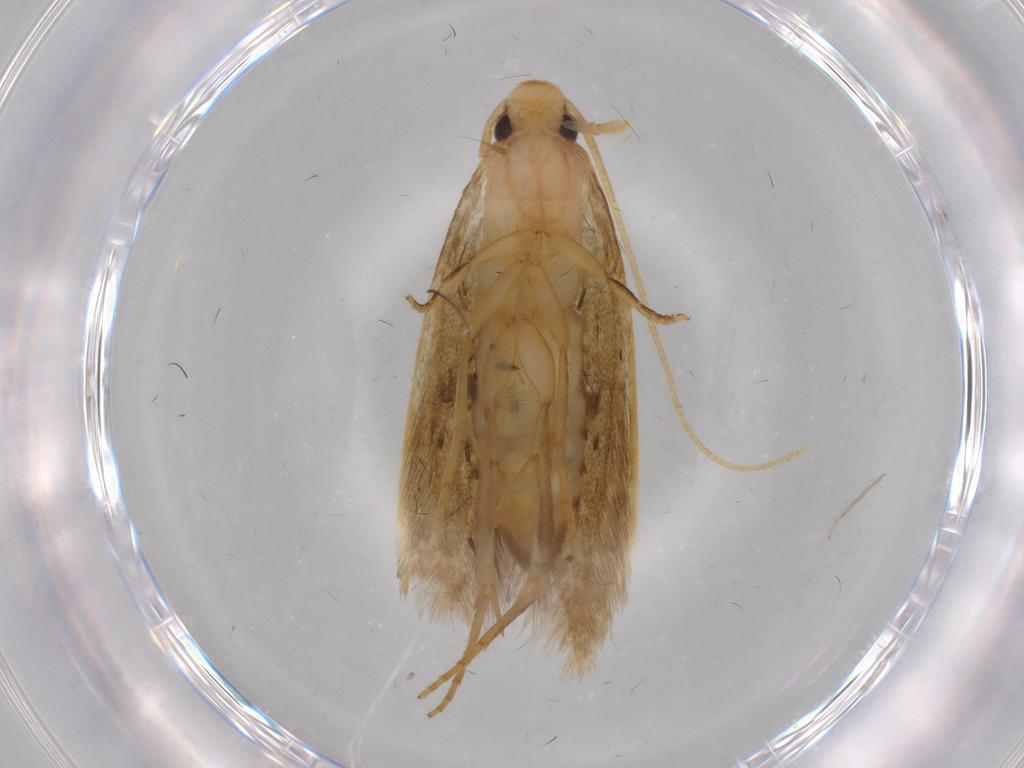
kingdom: Animalia
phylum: Arthropoda
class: Insecta
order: Lepidoptera
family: Tineidae
